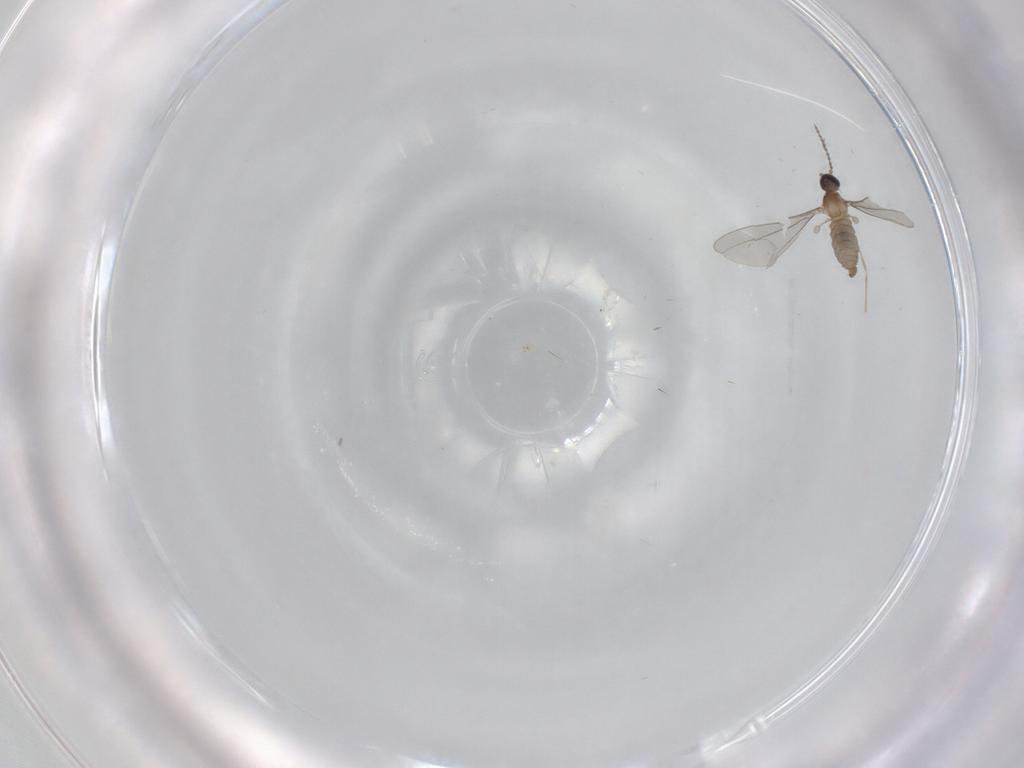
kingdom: Animalia
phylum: Arthropoda
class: Insecta
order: Diptera
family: Cecidomyiidae
